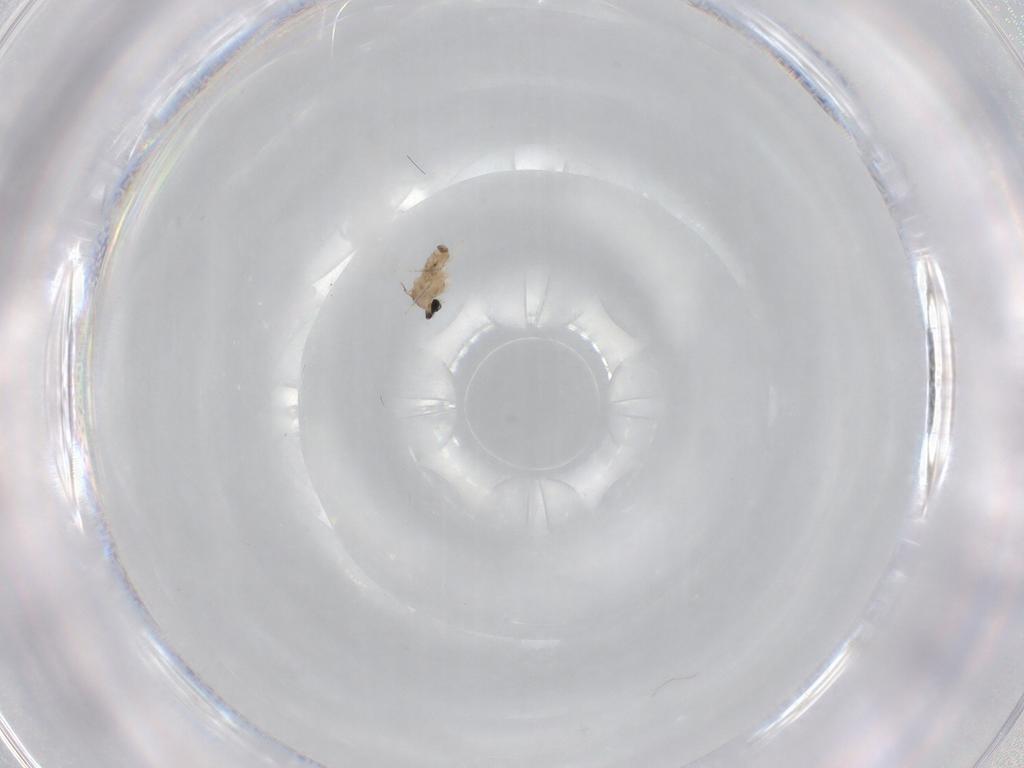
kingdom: Animalia
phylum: Arthropoda
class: Insecta
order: Diptera
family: Cecidomyiidae
